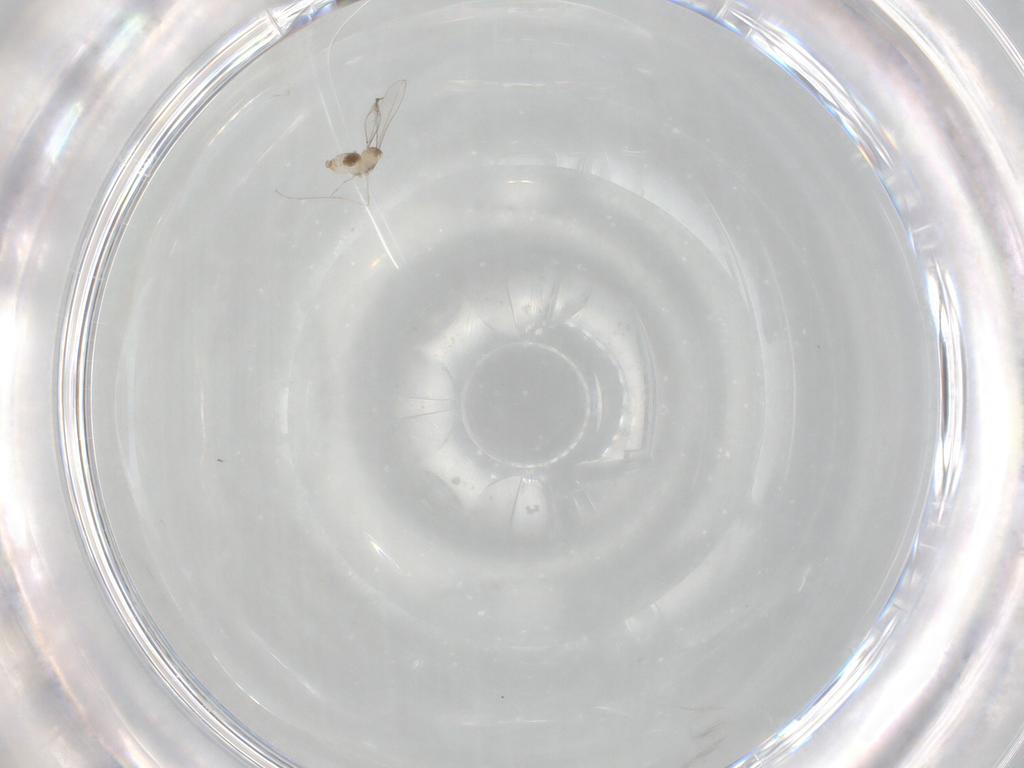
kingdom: Animalia
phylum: Arthropoda
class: Insecta
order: Diptera
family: Cecidomyiidae
